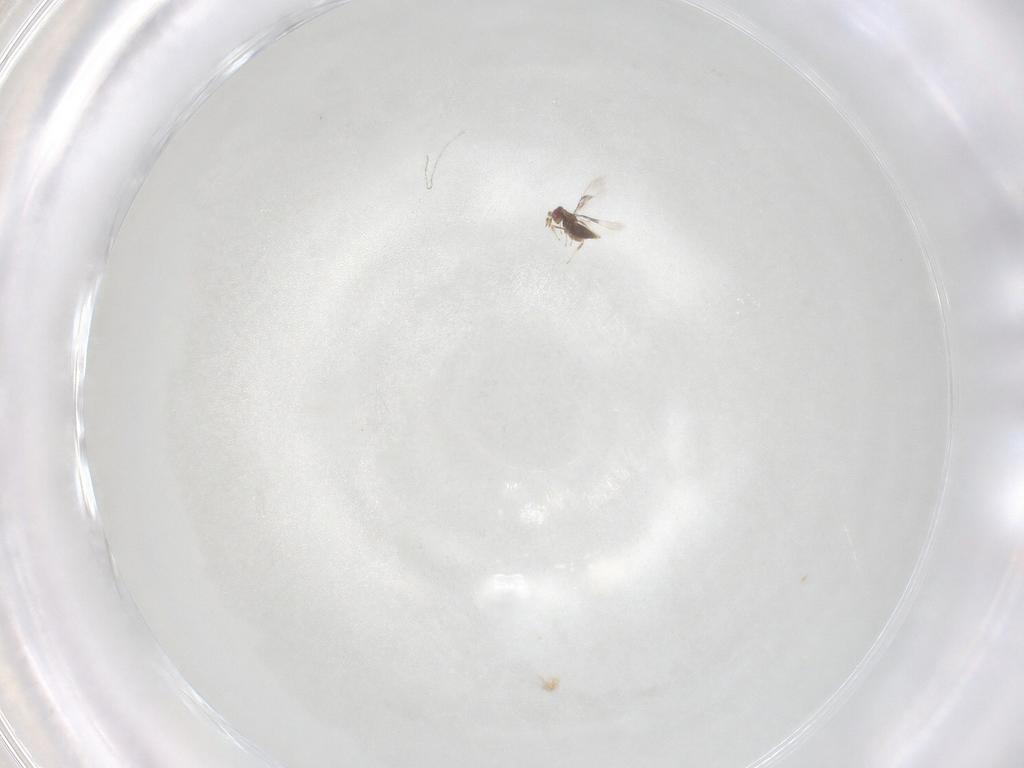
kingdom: Animalia
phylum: Arthropoda
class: Insecta
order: Hymenoptera
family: Trichogrammatidae
